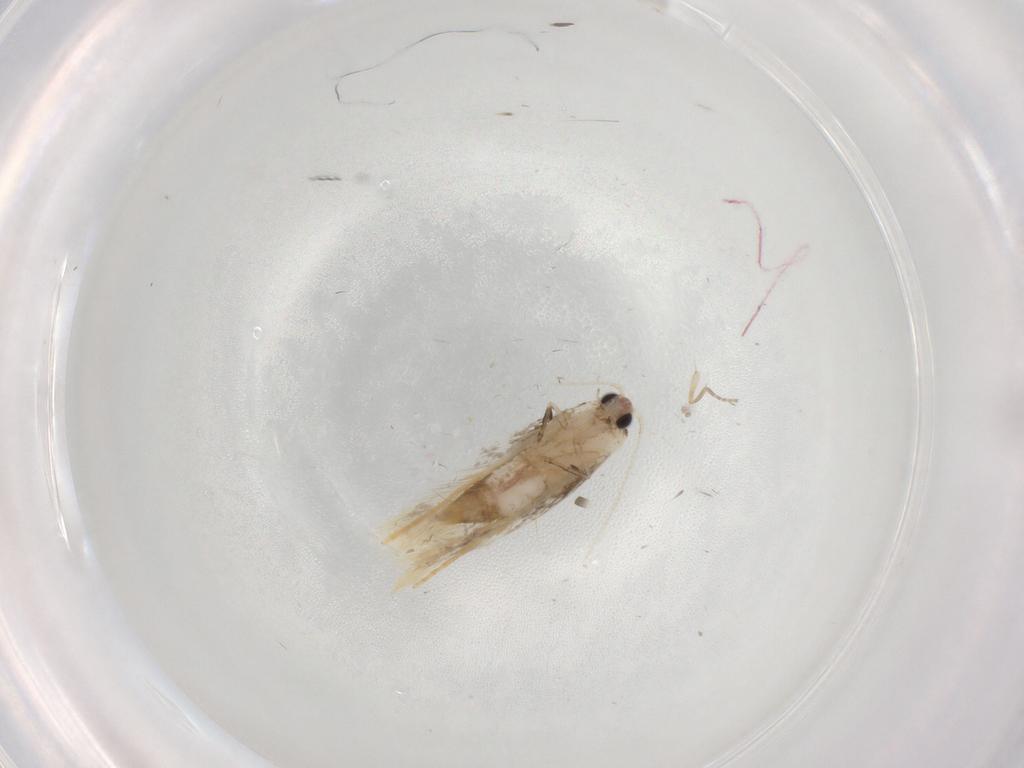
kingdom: Animalia
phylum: Arthropoda
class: Insecta
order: Lepidoptera
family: Tineidae
